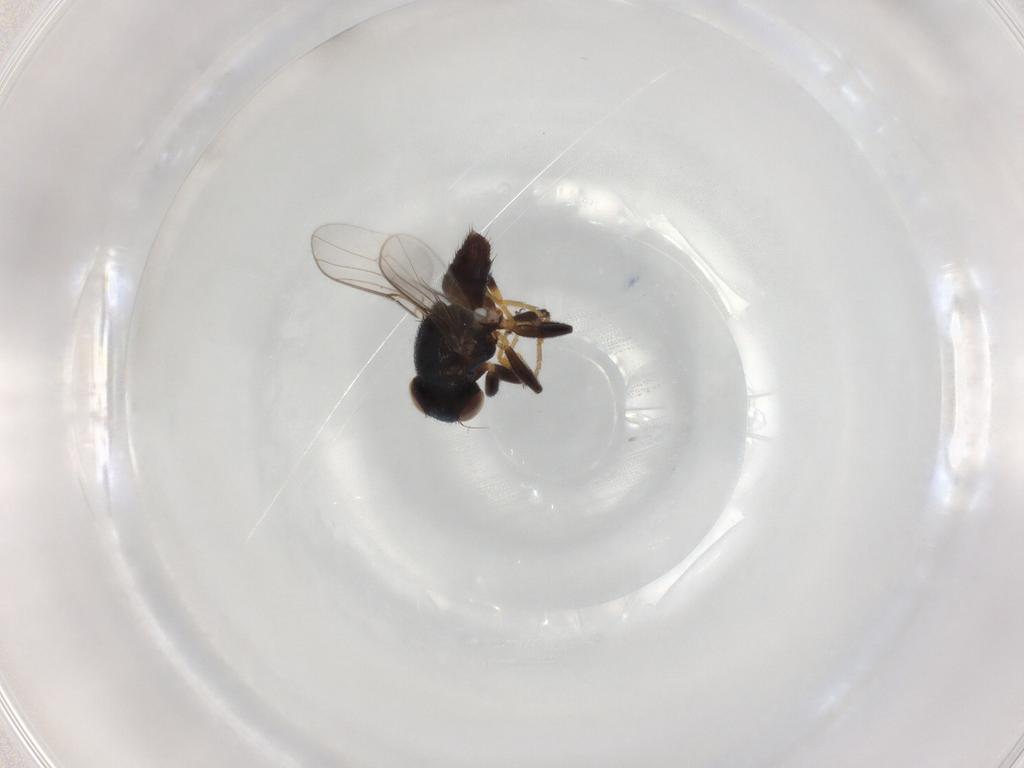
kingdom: Animalia
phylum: Arthropoda
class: Insecta
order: Diptera
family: Chloropidae
